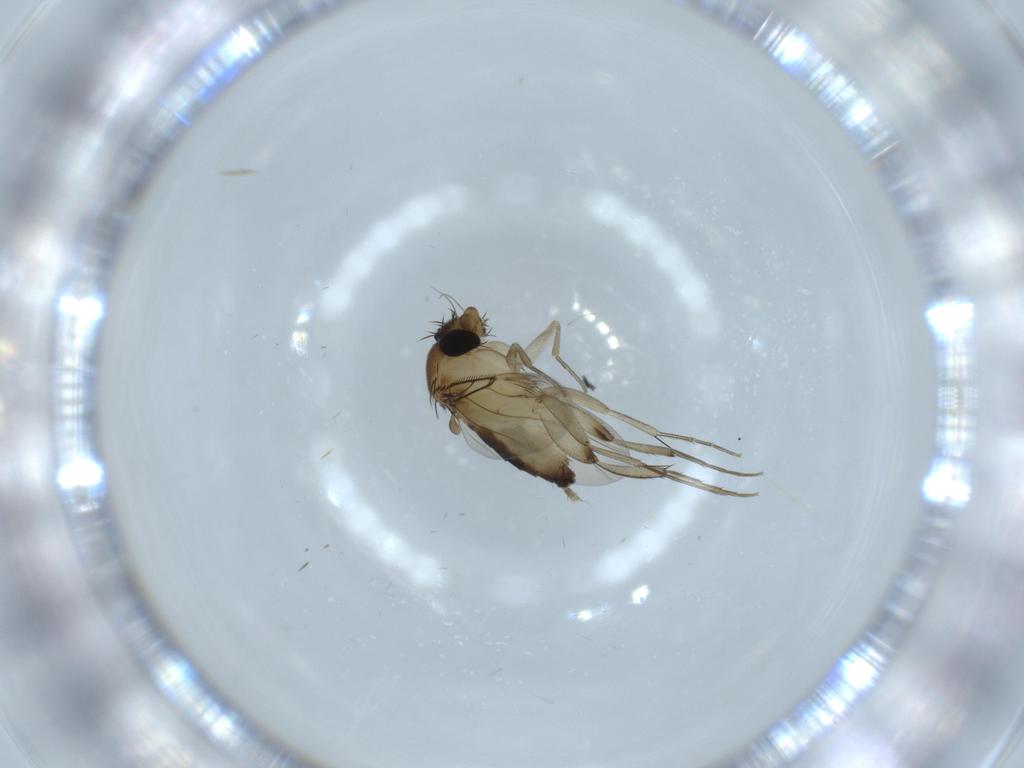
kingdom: Animalia
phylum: Arthropoda
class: Insecta
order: Diptera
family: Phoridae
